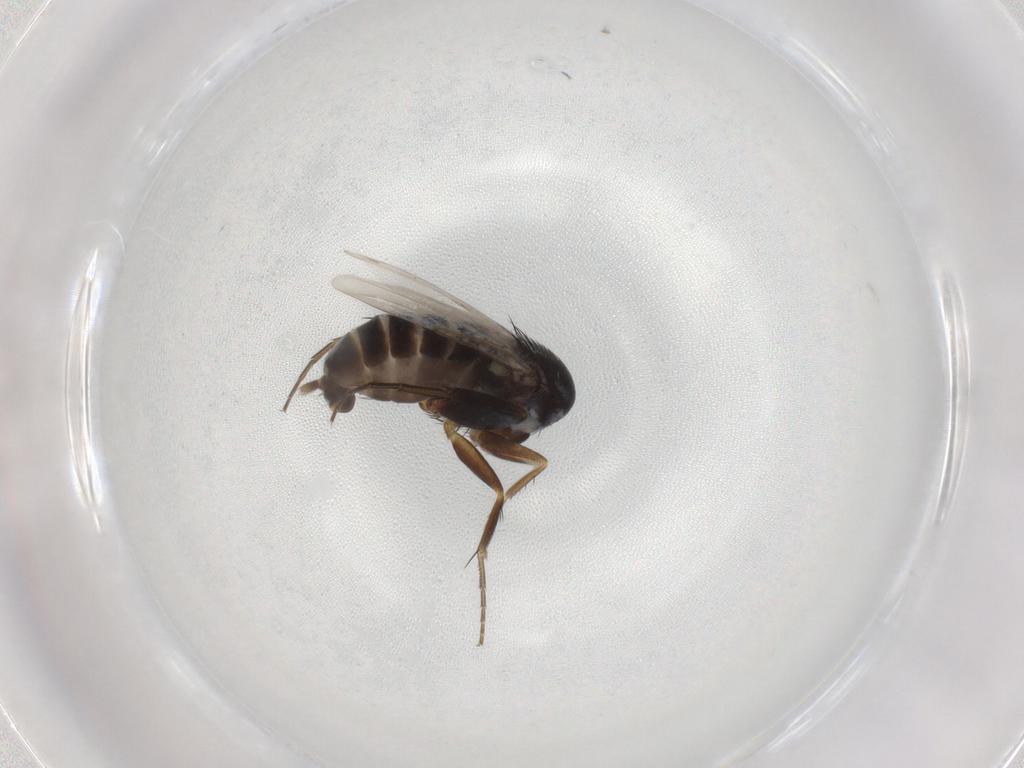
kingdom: Animalia
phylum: Arthropoda
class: Insecta
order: Diptera
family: Phoridae
